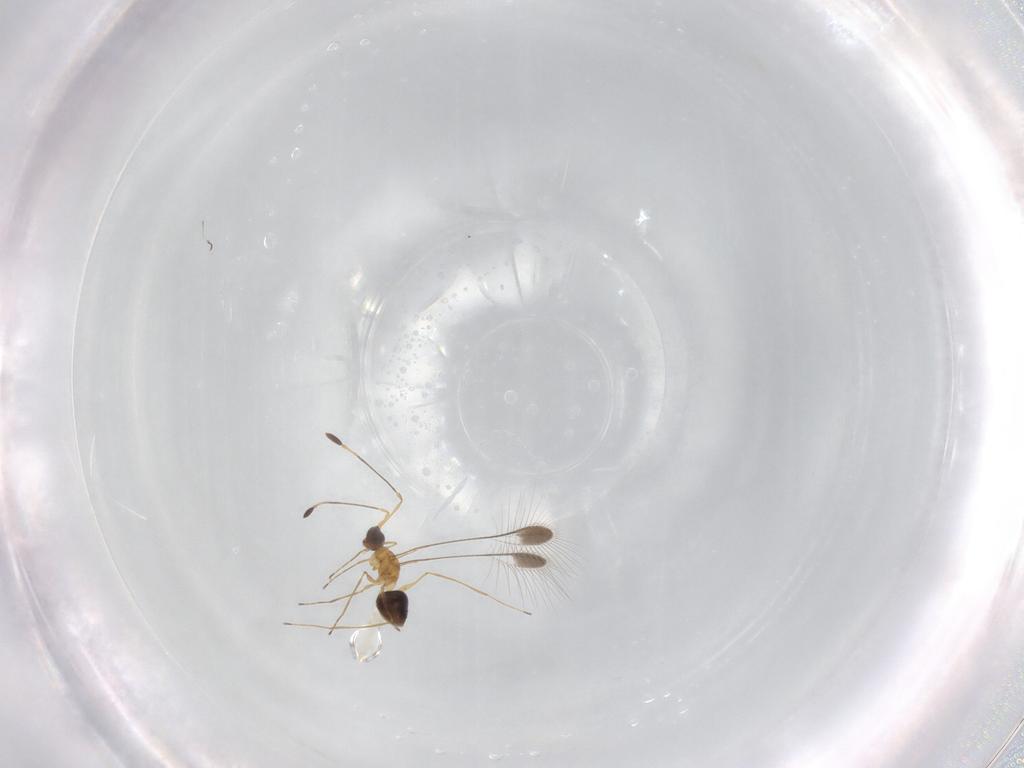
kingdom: Animalia
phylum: Arthropoda
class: Insecta
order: Hymenoptera
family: Mymaridae
